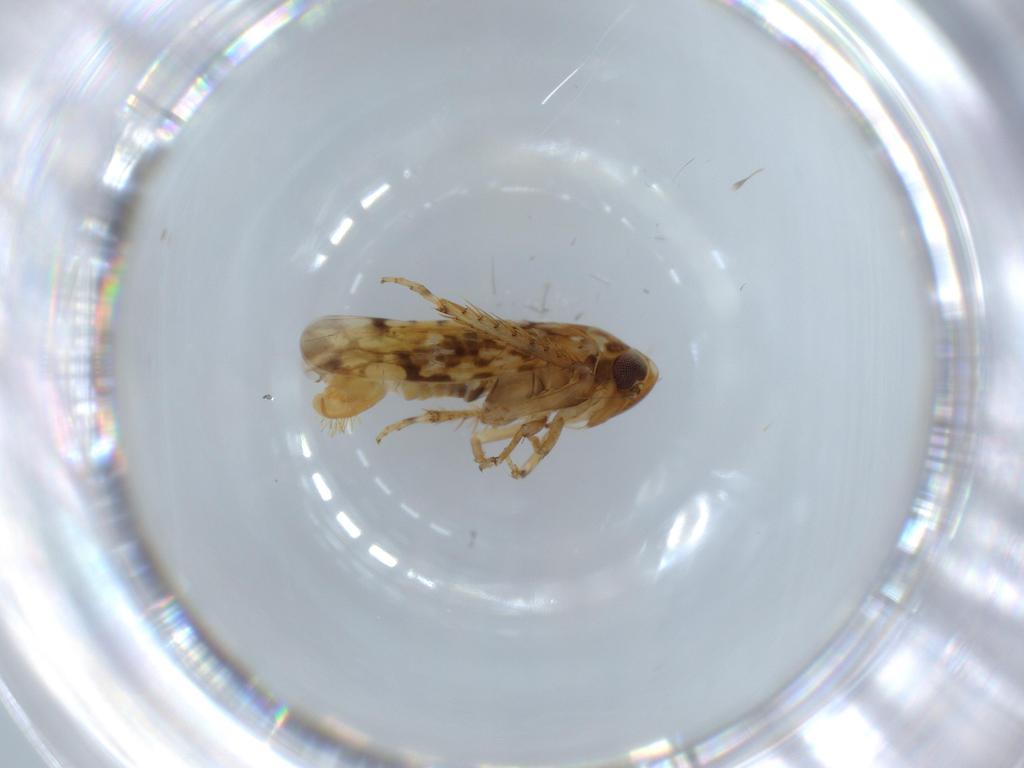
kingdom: Animalia
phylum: Arthropoda
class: Insecta
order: Hemiptera
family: Cicadellidae
